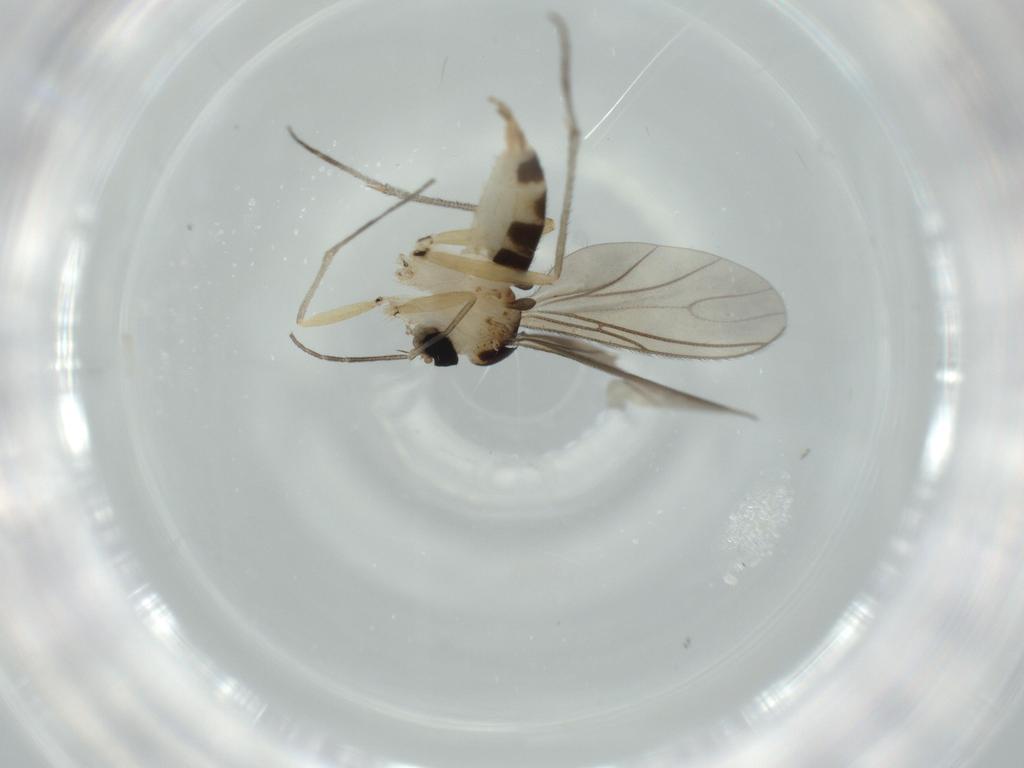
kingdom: Animalia
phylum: Arthropoda
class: Insecta
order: Diptera
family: Sciaridae
